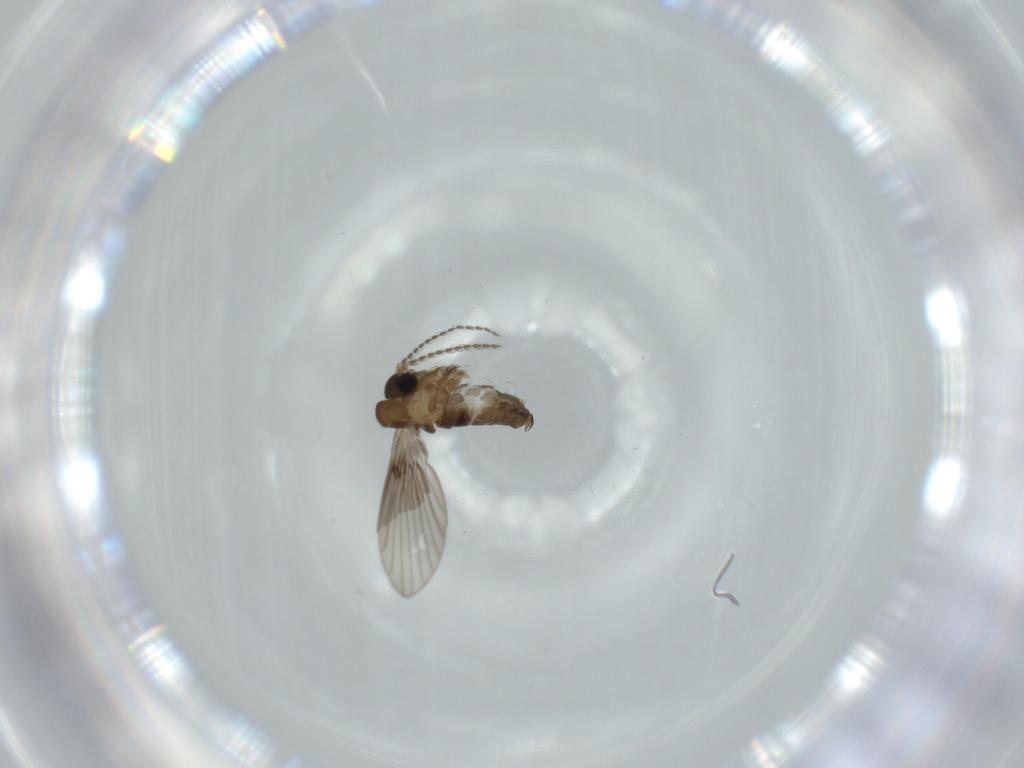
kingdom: Animalia
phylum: Arthropoda
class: Insecta
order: Diptera
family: Psychodidae
